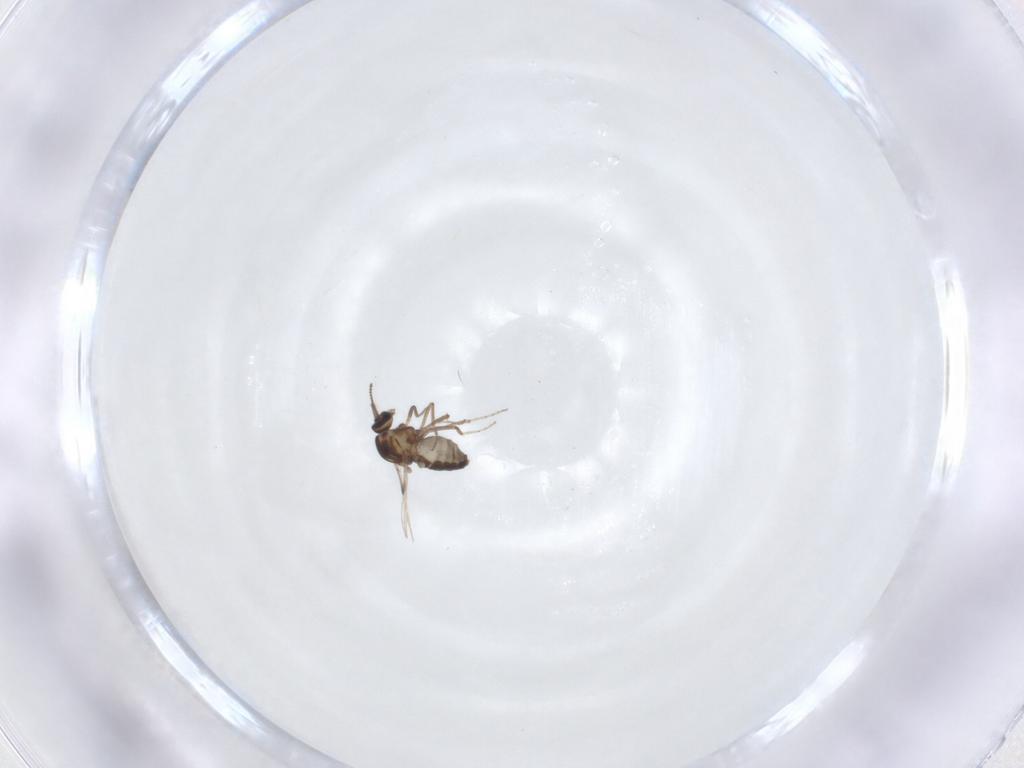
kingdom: Animalia
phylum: Arthropoda
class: Insecta
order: Diptera
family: Ceratopogonidae
